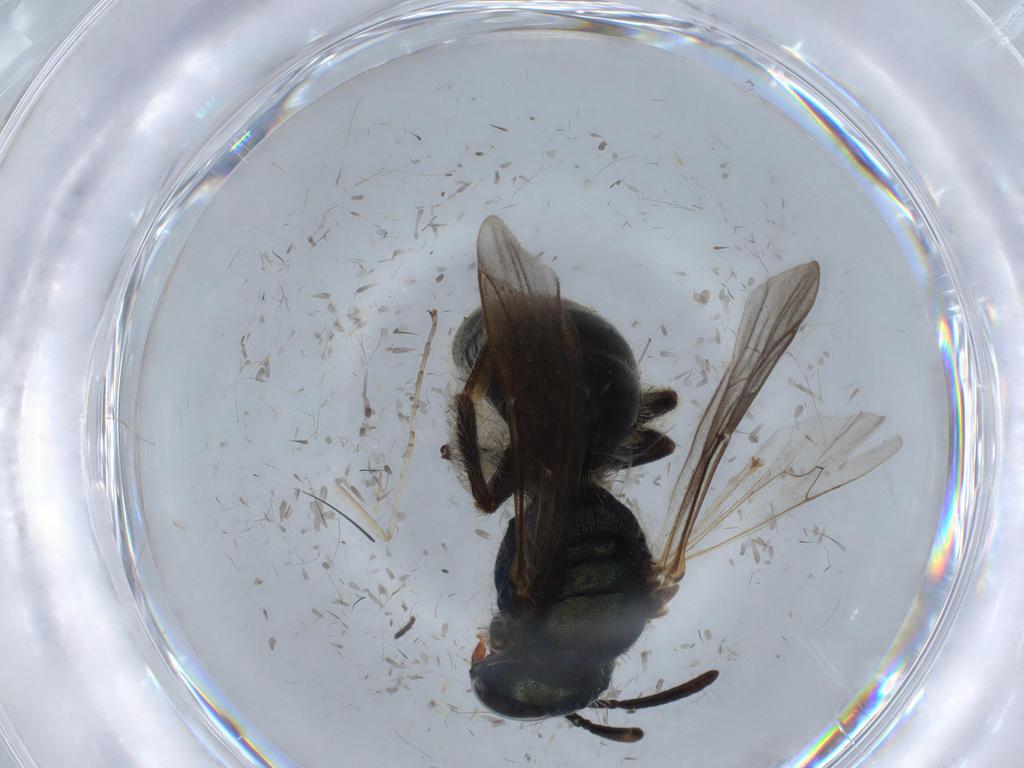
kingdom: Animalia
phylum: Arthropoda
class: Insecta
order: Hymenoptera
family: Halictidae
